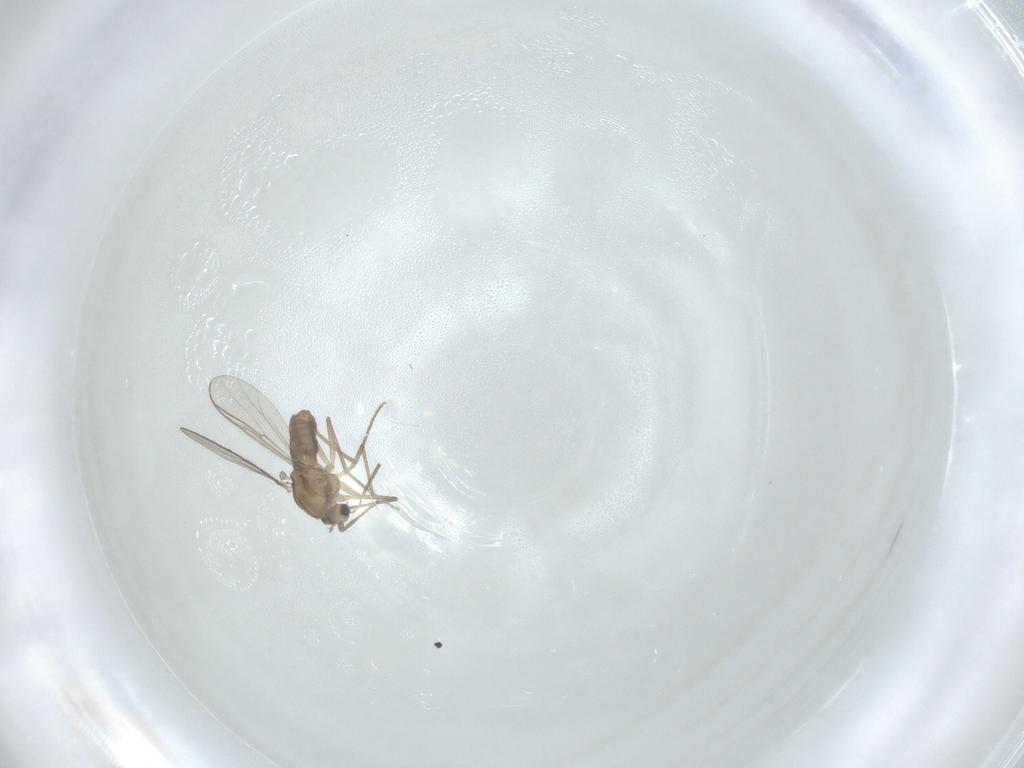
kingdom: Animalia
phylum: Arthropoda
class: Insecta
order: Diptera
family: Chironomidae
